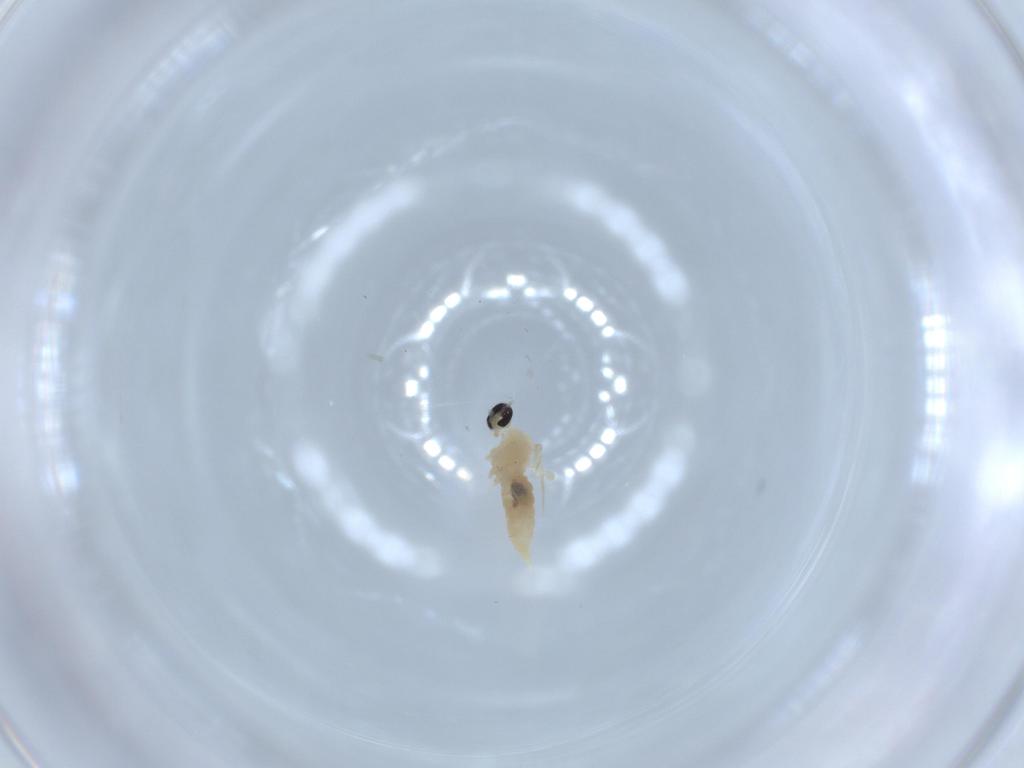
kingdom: Animalia
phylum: Arthropoda
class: Insecta
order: Diptera
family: Cecidomyiidae
